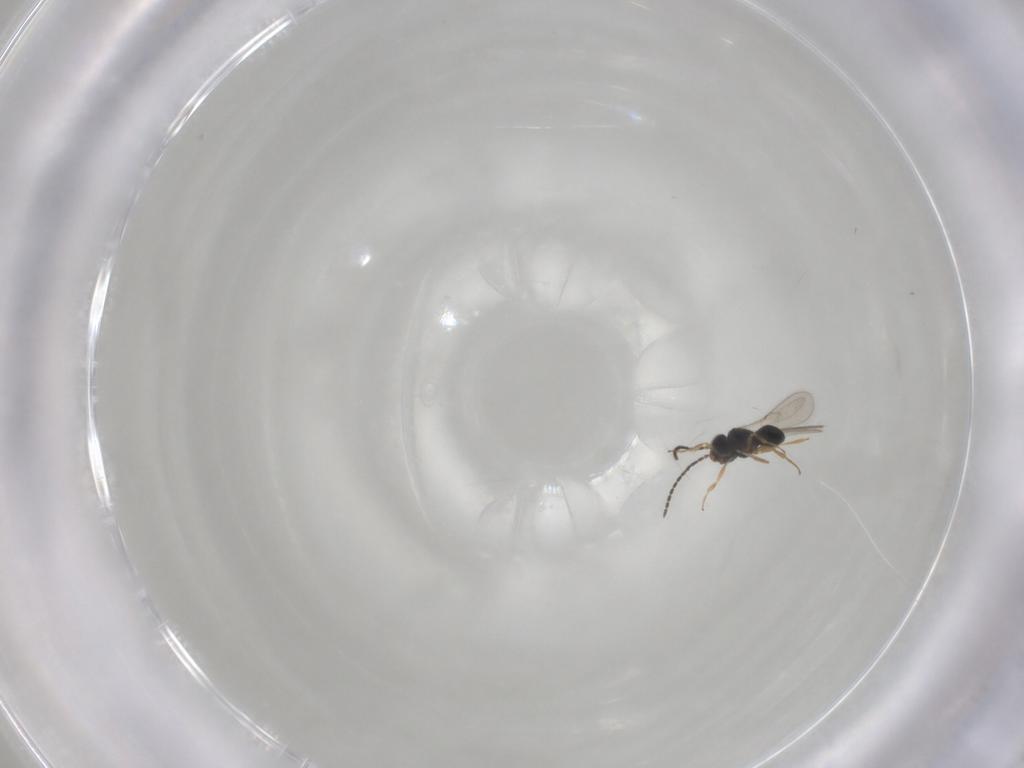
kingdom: Animalia
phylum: Arthropoda
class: Insecta
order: Hymenoptera
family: Scelionidae
